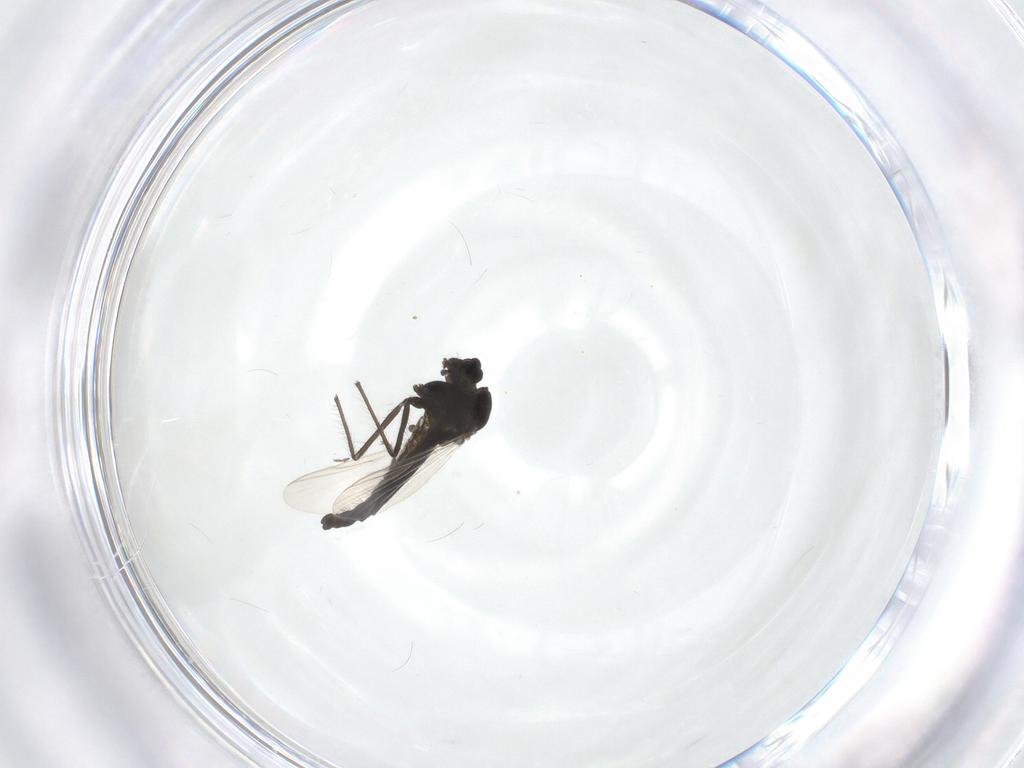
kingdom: Animalia
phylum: Arthropoda
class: Insecta
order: Diptera
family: Chironomidae
